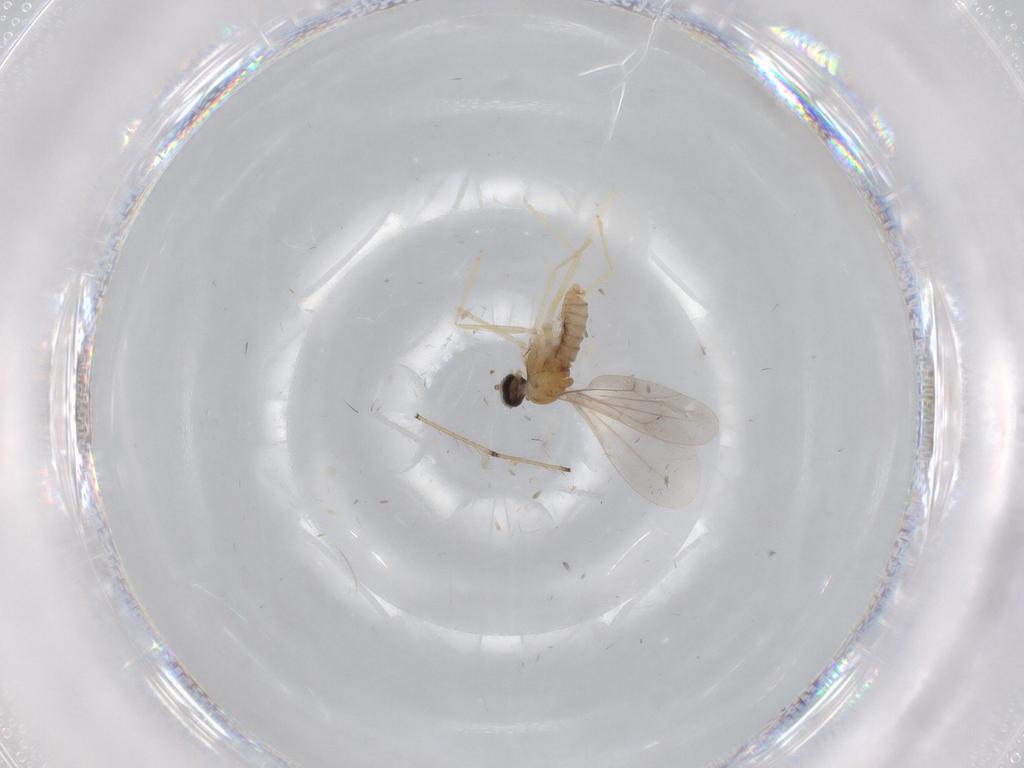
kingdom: Animalia
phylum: Arthropoda
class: Insecta
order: Diptera
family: Cecidomyiidae
